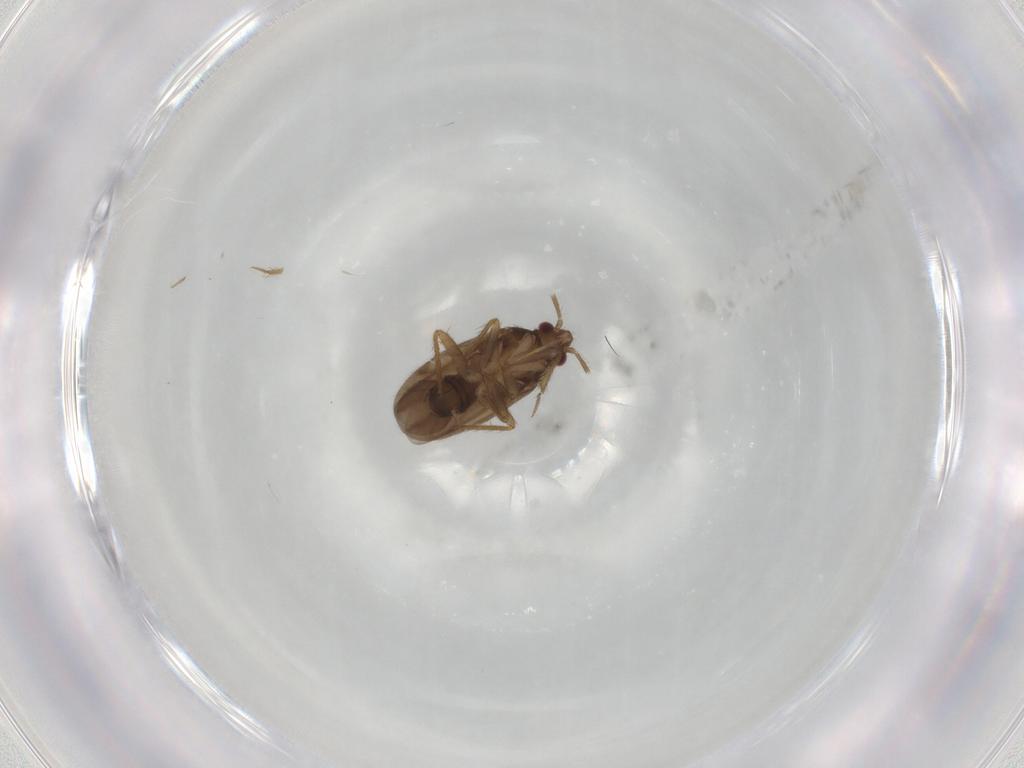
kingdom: Animalia
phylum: Arthropoda
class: Insecta
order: Hemiptera
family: Ceratocombidae
